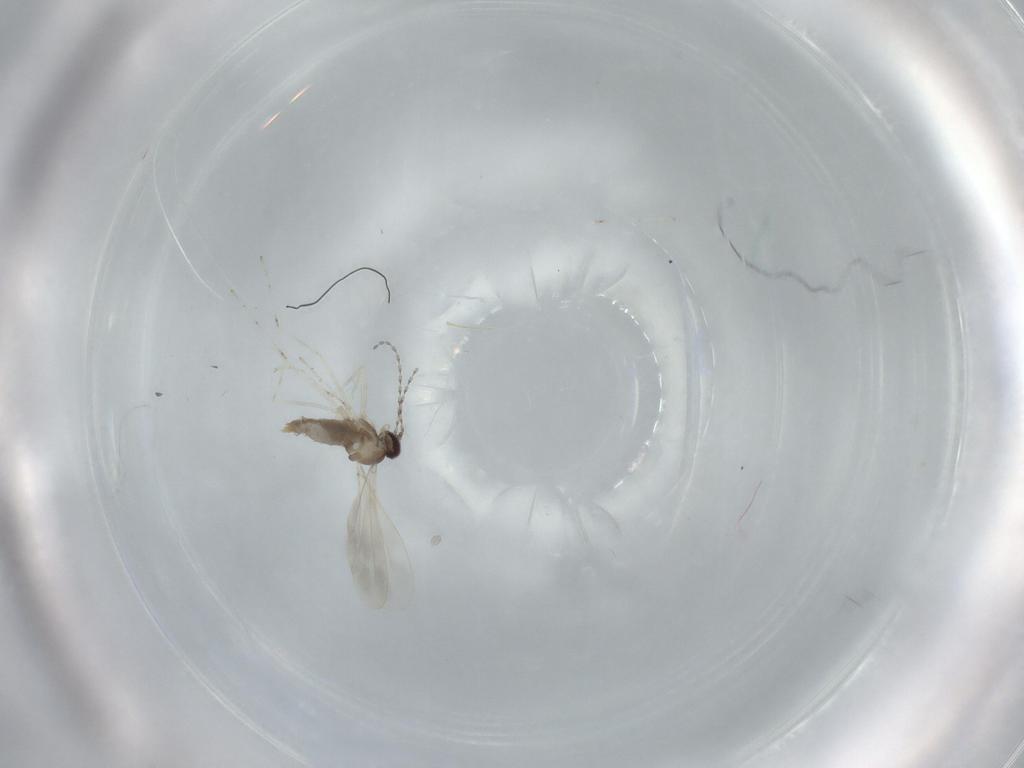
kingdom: Animalia
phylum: Arthropoda
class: Insecta
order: Diptera
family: Cecidomyiidae
